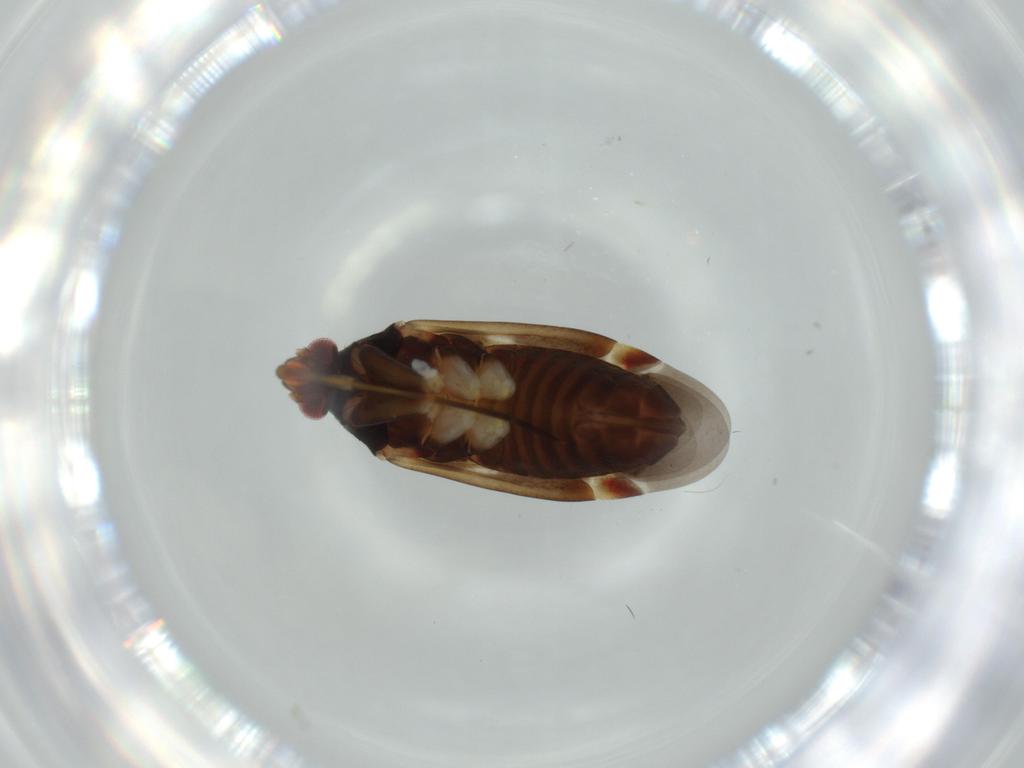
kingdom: Animalia
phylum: Arthropoda
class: Insecta
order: Hemiptera
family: Miridae
